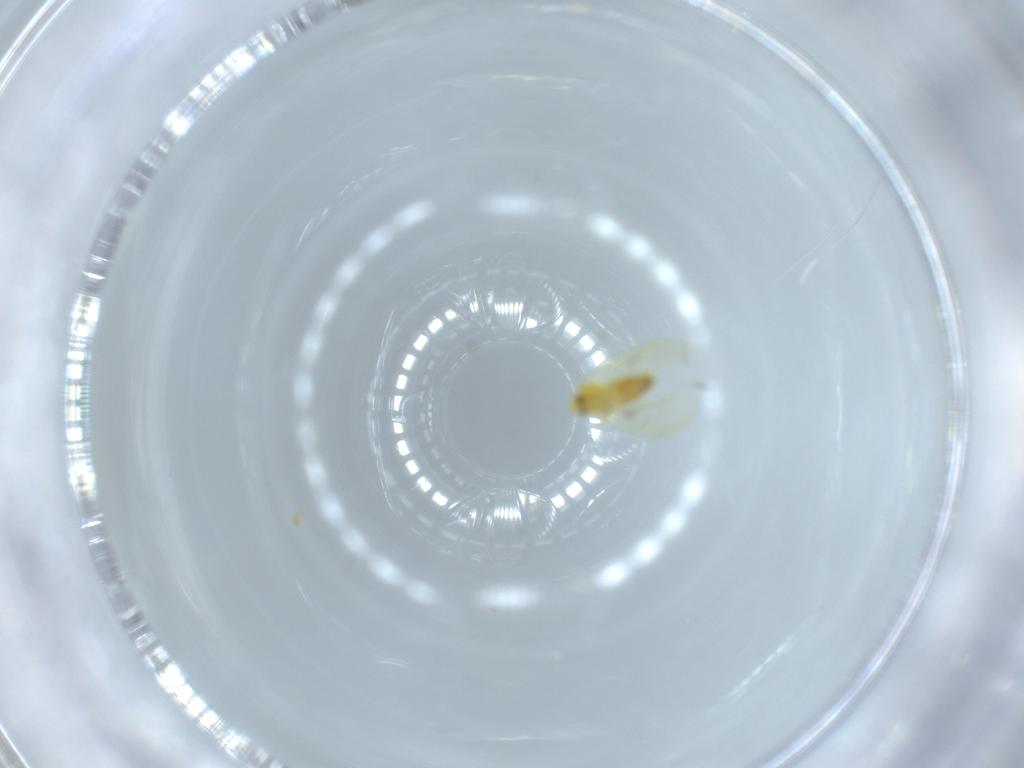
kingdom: Animalia
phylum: Arthropoda
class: Insecta
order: Hemiptera
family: Aleyrodidae
